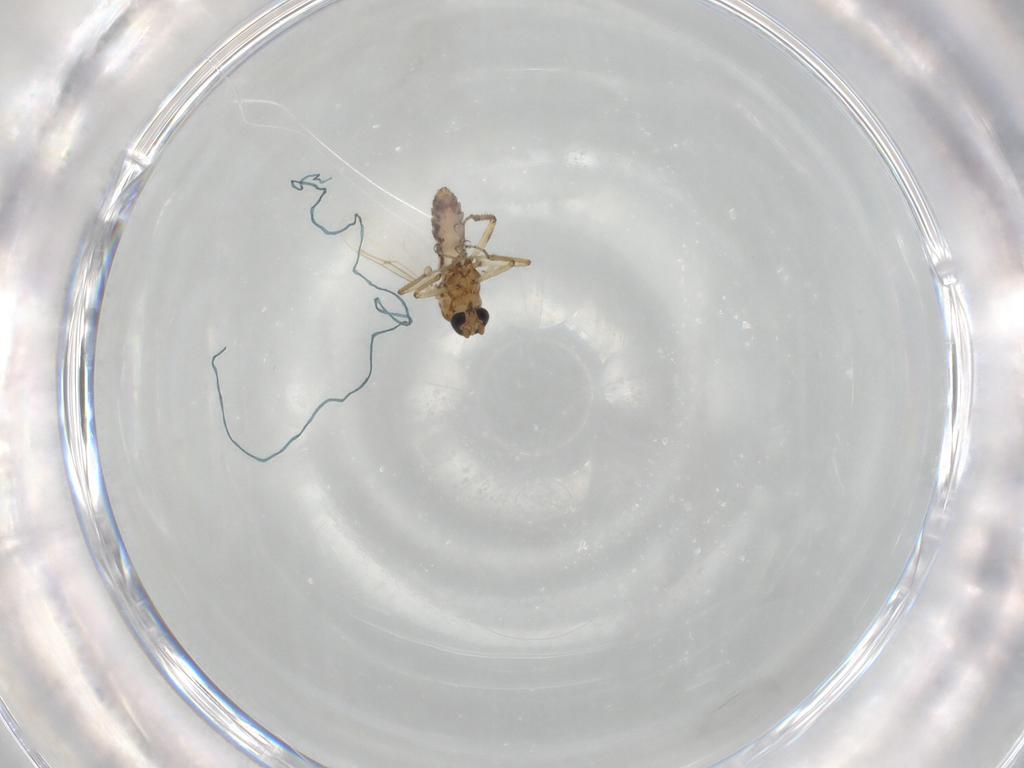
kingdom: Animalia
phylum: Arthropoda
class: Insecta
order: Diptera
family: Ceratopogonidae
